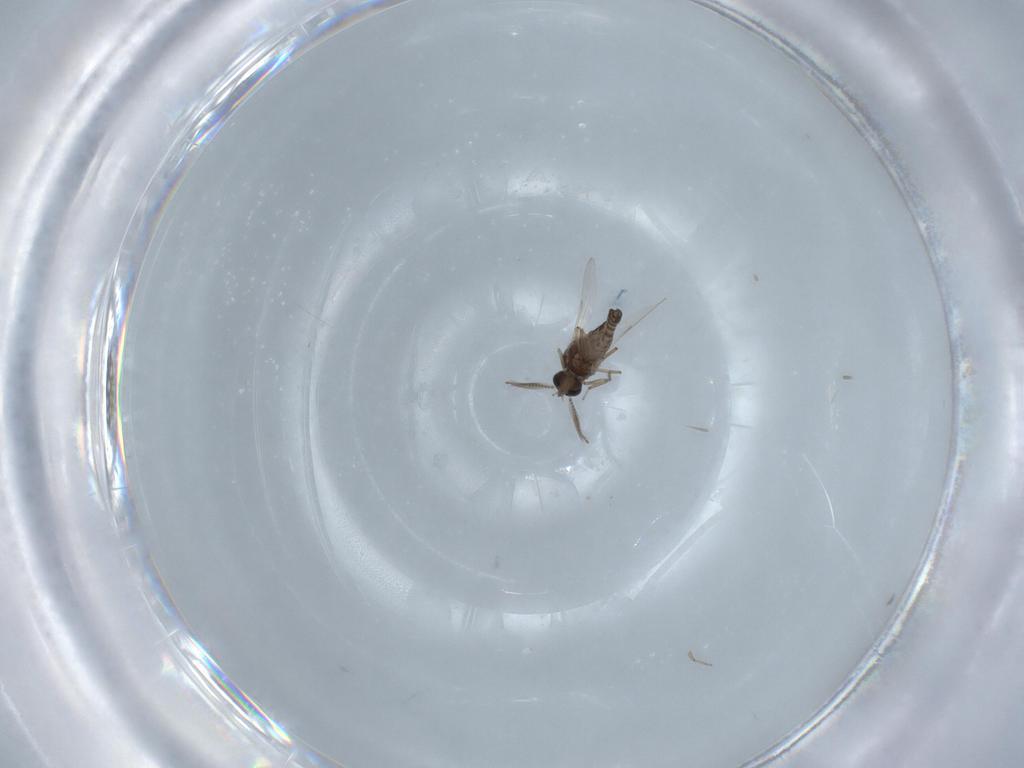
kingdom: Animalia
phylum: Arthropoda
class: Insecta
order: Diptera
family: Ceratopogonidae
